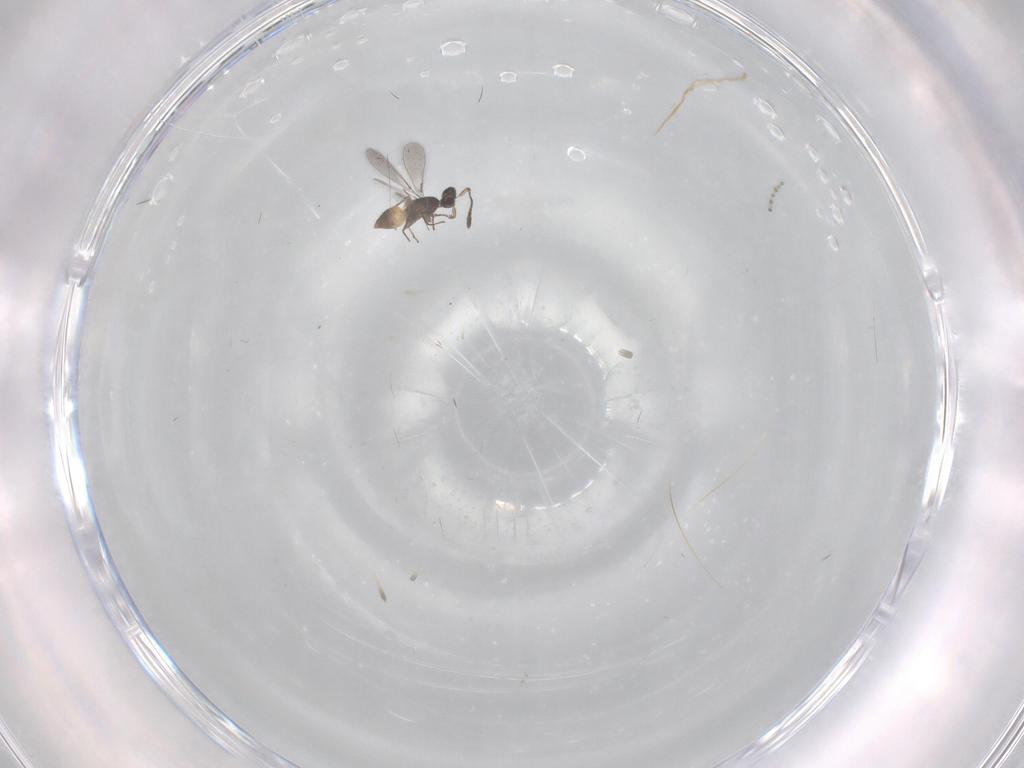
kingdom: Animalia
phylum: Arthropoda
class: Insecta
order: Hymenoptera
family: Mymaridae
